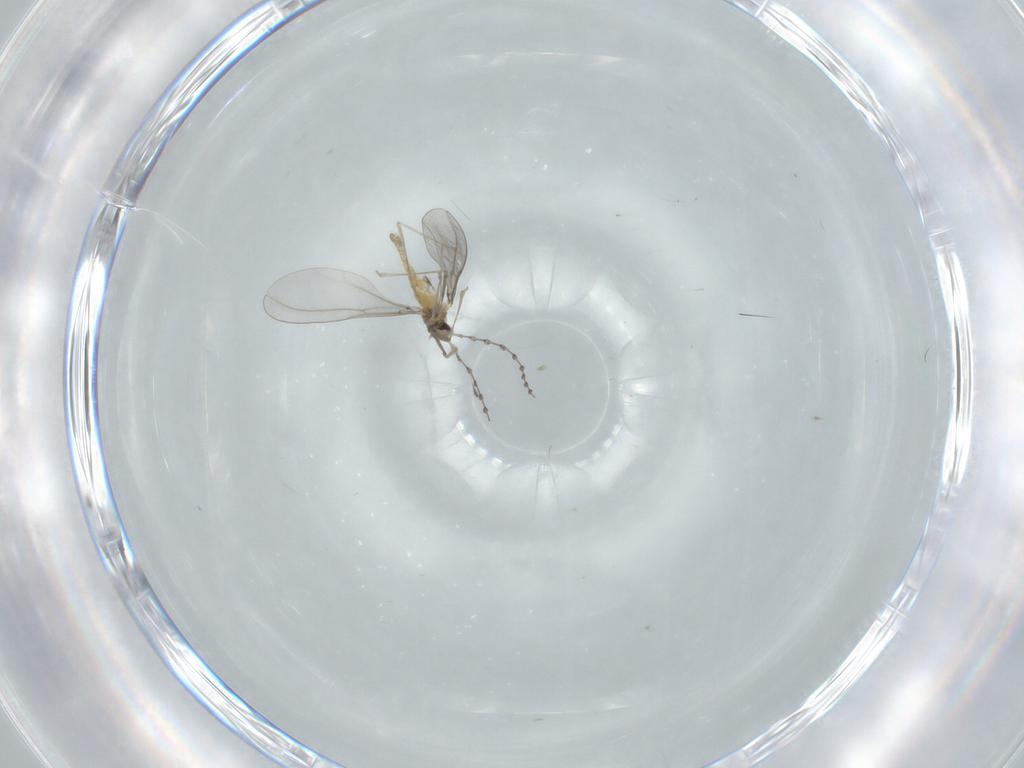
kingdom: Animalia
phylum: Arthropoda
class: Insecta
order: Diptera
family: Cecidomyiidae
